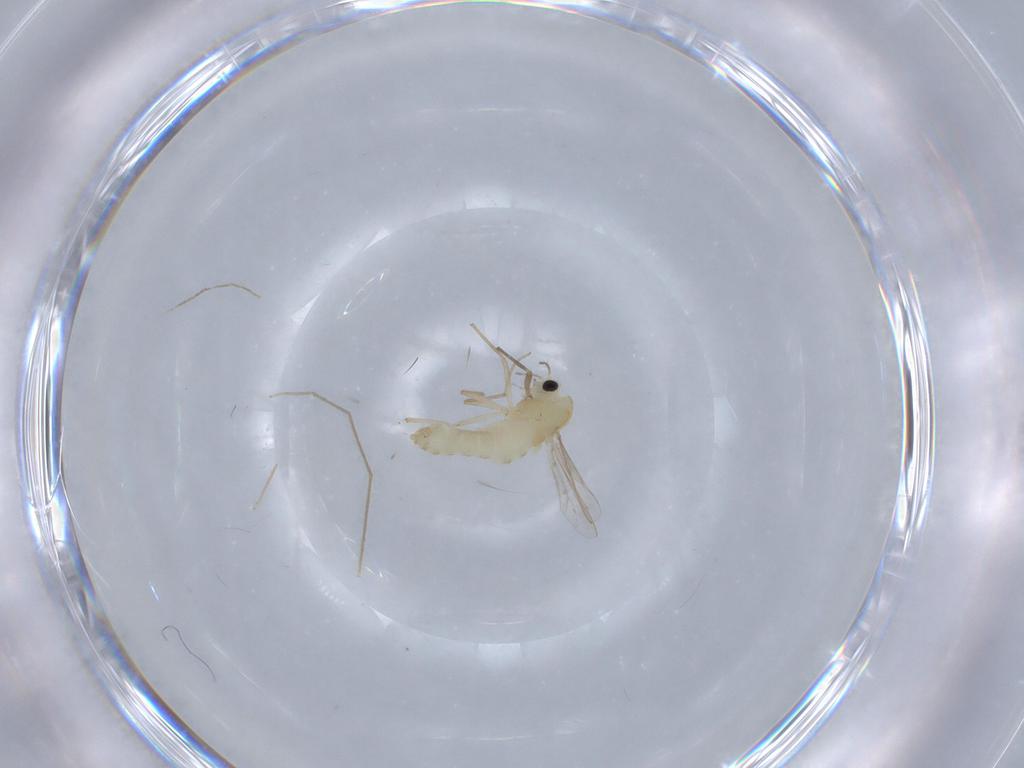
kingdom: Animalia
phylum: Arthropoda
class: Insecta
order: Diptera
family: Chironomidae
